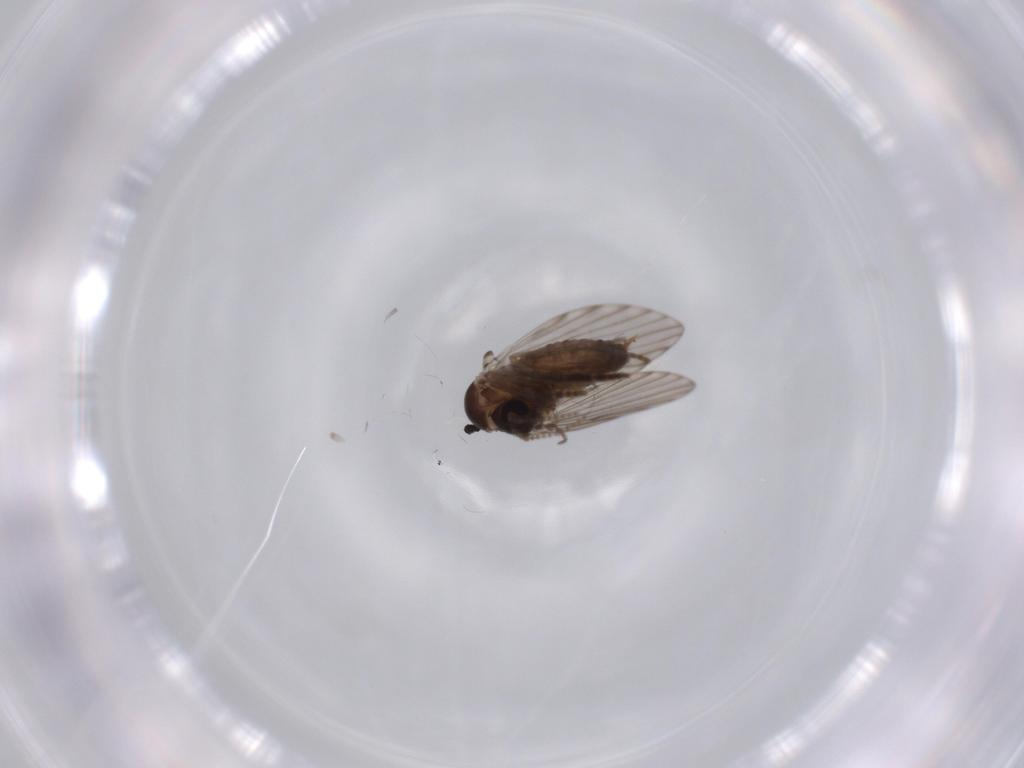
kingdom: Animalia
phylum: Arthropoda
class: Insecta
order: Diptera
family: Psychodidae
